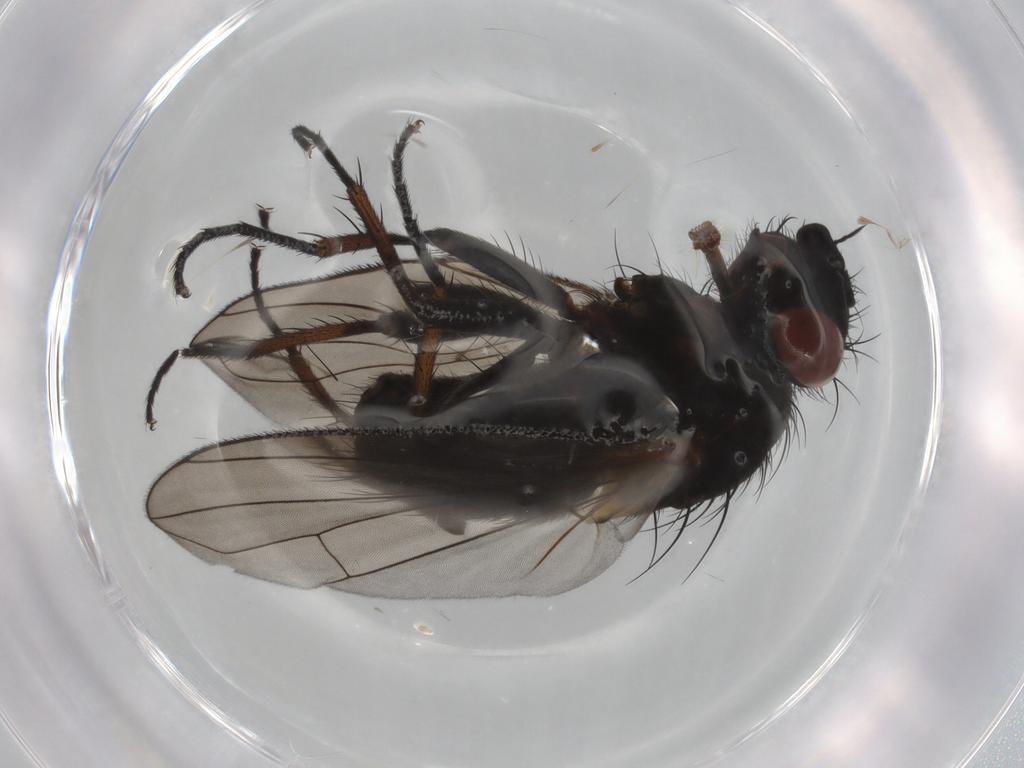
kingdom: Animalia
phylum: Arthropoda
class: Insecta
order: Diptera
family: Tachinidae
